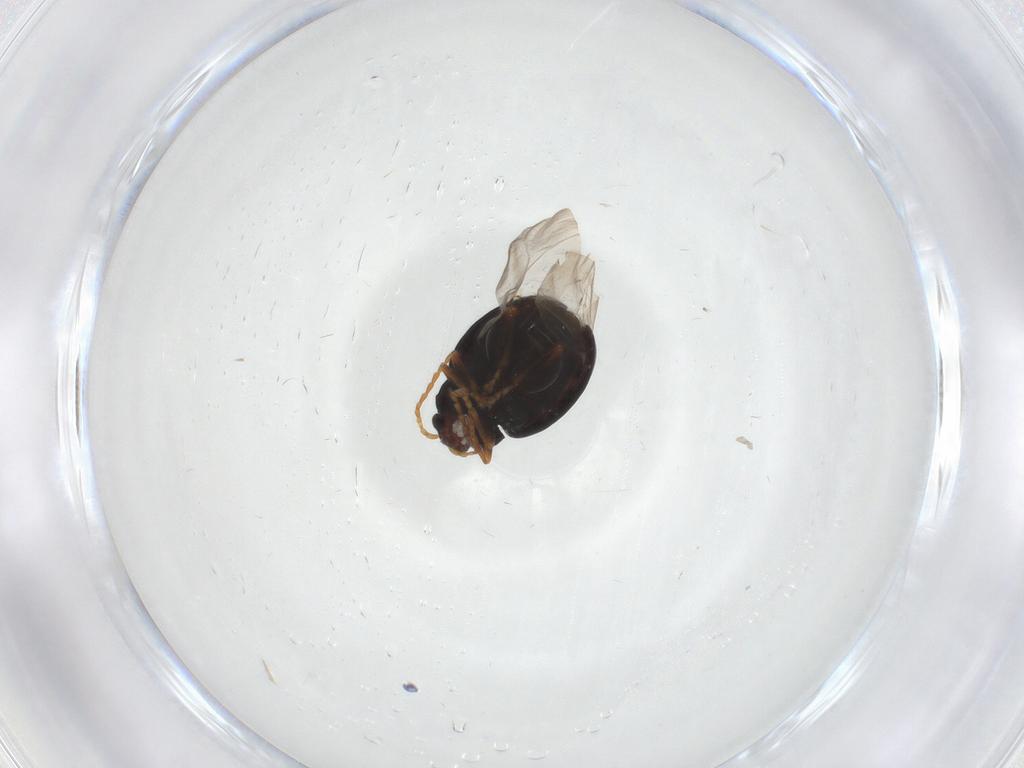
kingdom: Animalia
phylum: Arthropoda
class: Insecta
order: Coleoptera
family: Chrysomelidae
